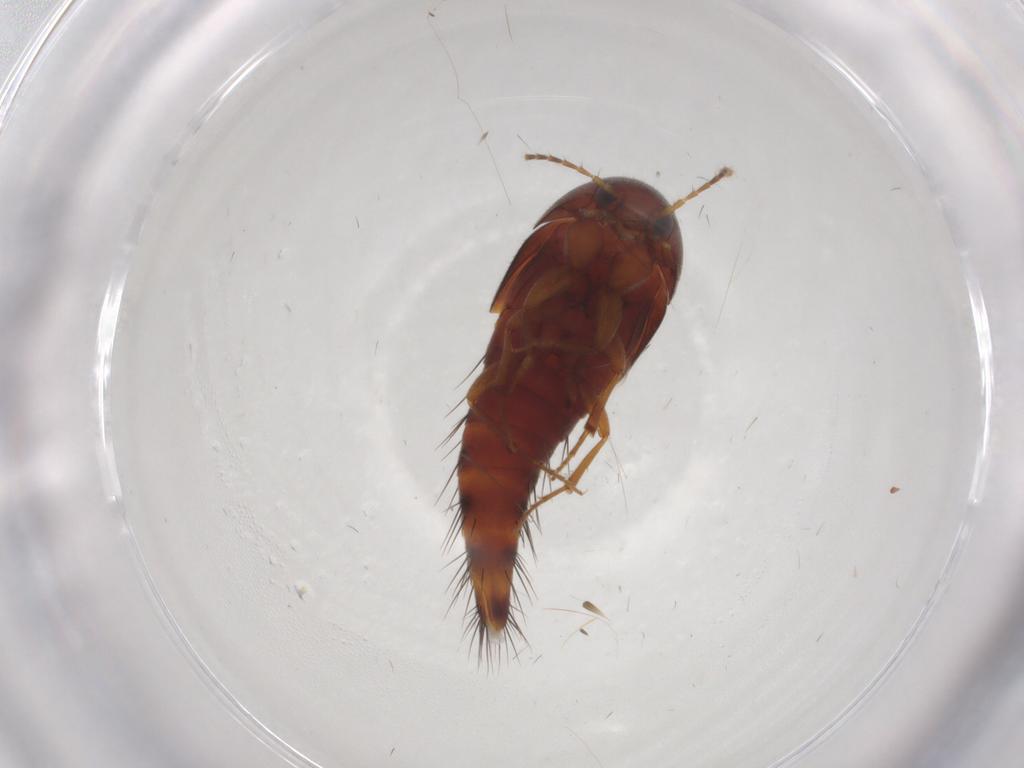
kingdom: Animalia
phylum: Arthropoda
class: Insecta
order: Coleoptera
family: Staphylinidae
